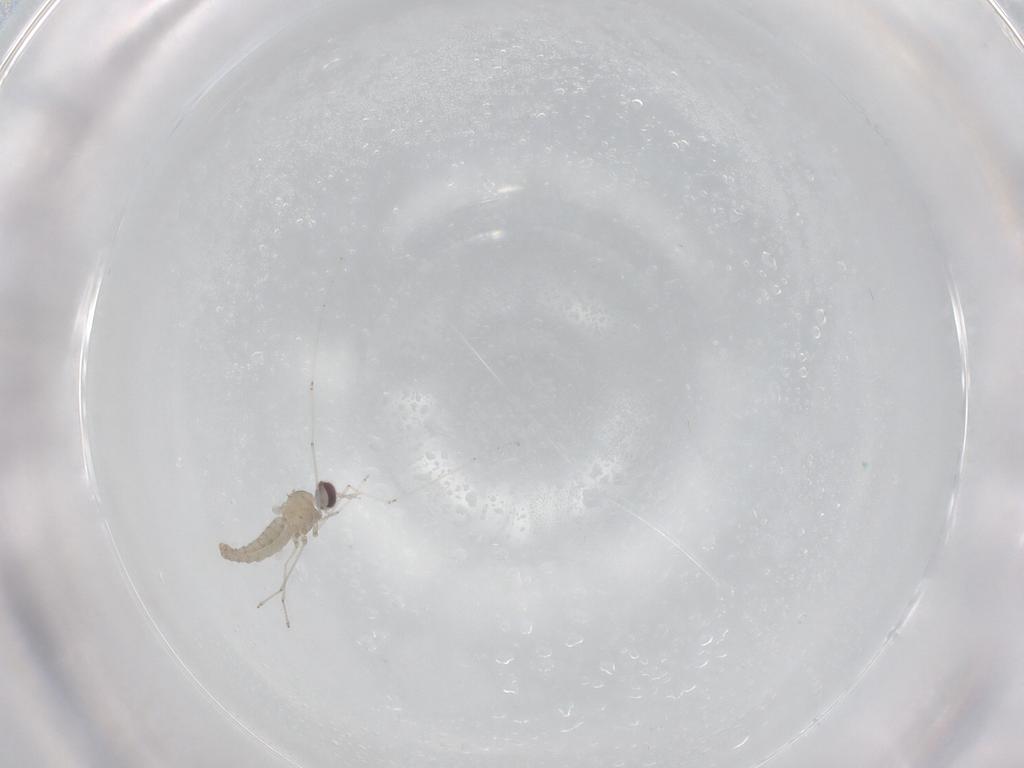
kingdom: Animalia
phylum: Arthropoda
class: Insecta
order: Diptera
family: Cecidomyiidae
